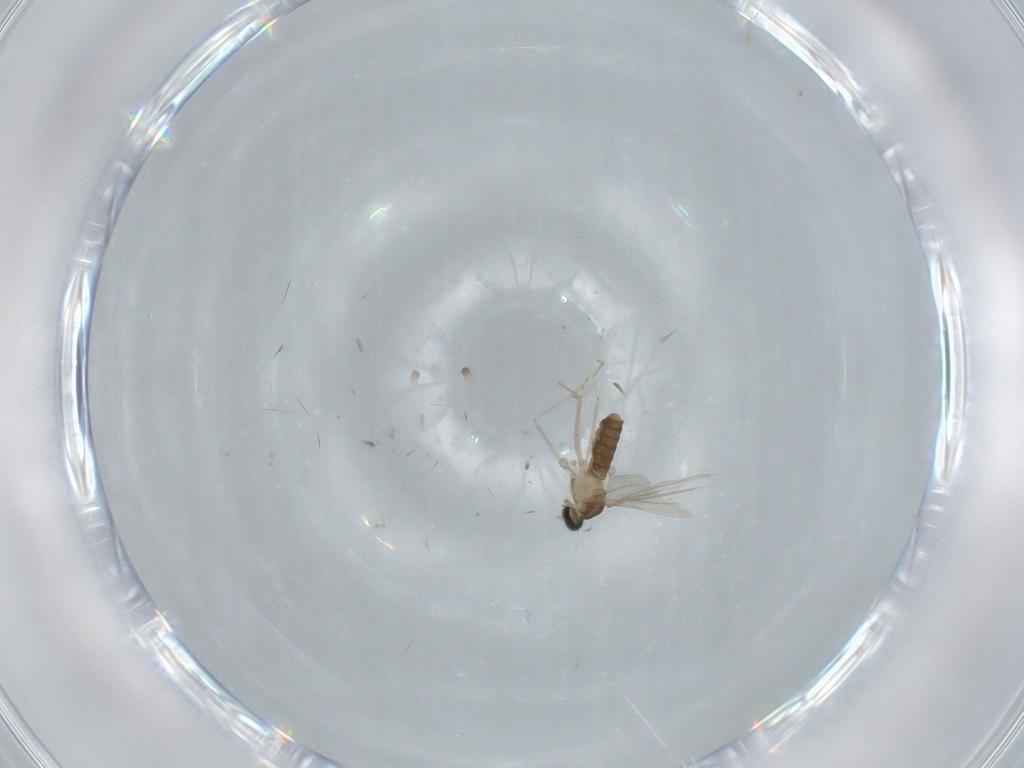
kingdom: Animalia
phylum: Arthropoda
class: Insecta
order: Diptera
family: Cecidomyiidae
